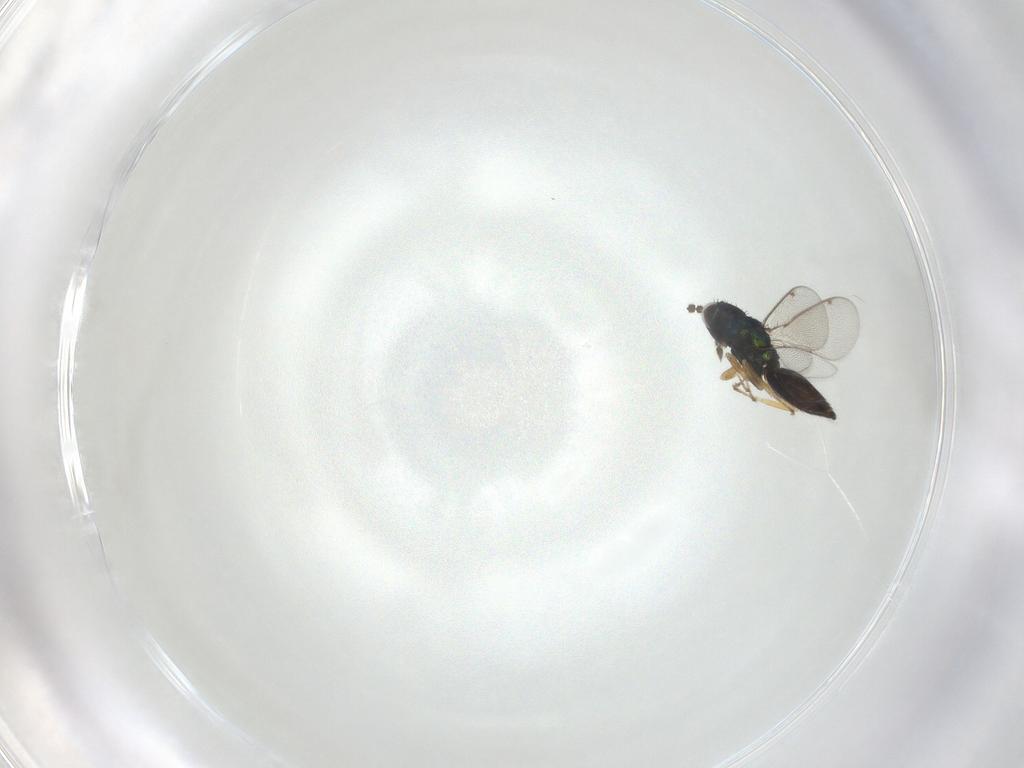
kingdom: Animalia
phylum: Arthropoda
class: Insecta
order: Hymenoptera
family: Eulophidae
